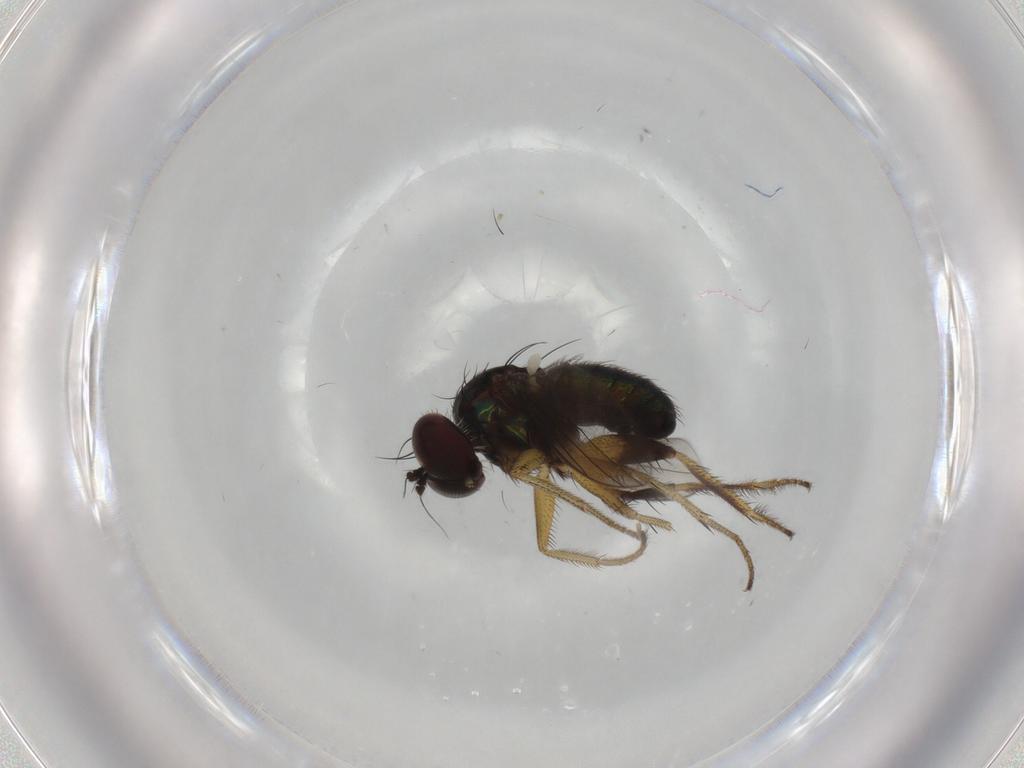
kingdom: Animalia
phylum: Arthropoda
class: Insecta
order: Diptera
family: Dolichopodidae
